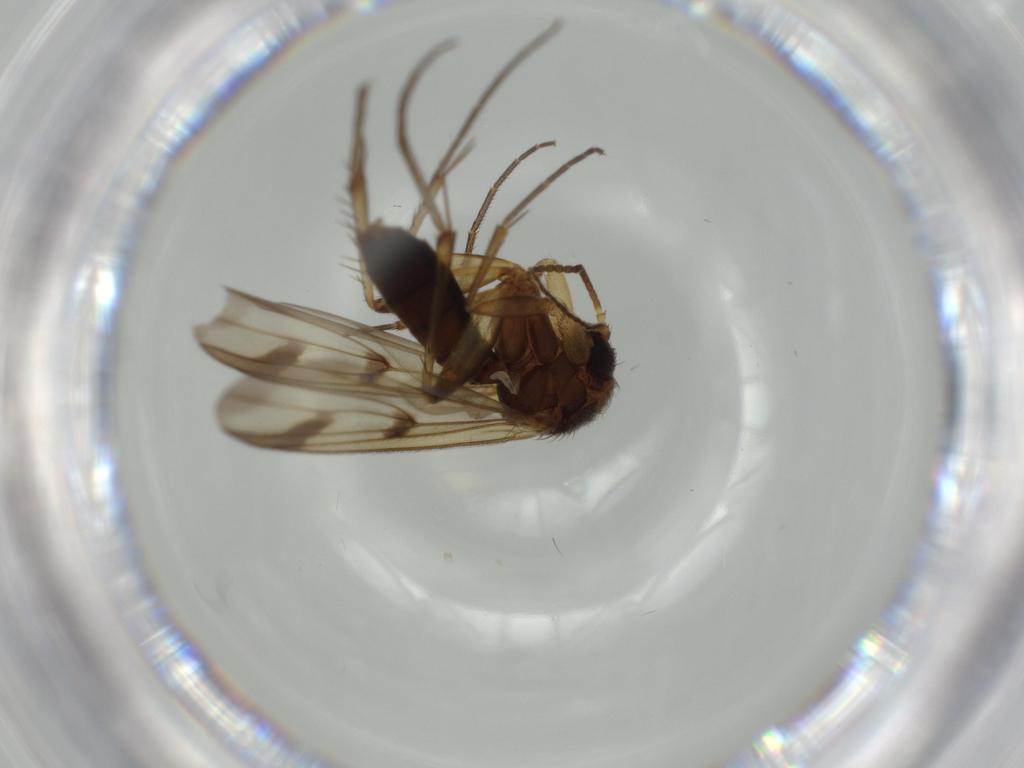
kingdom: Animalia
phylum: Arthropoda
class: Insecta
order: Diptera
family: Mycetophilidae
